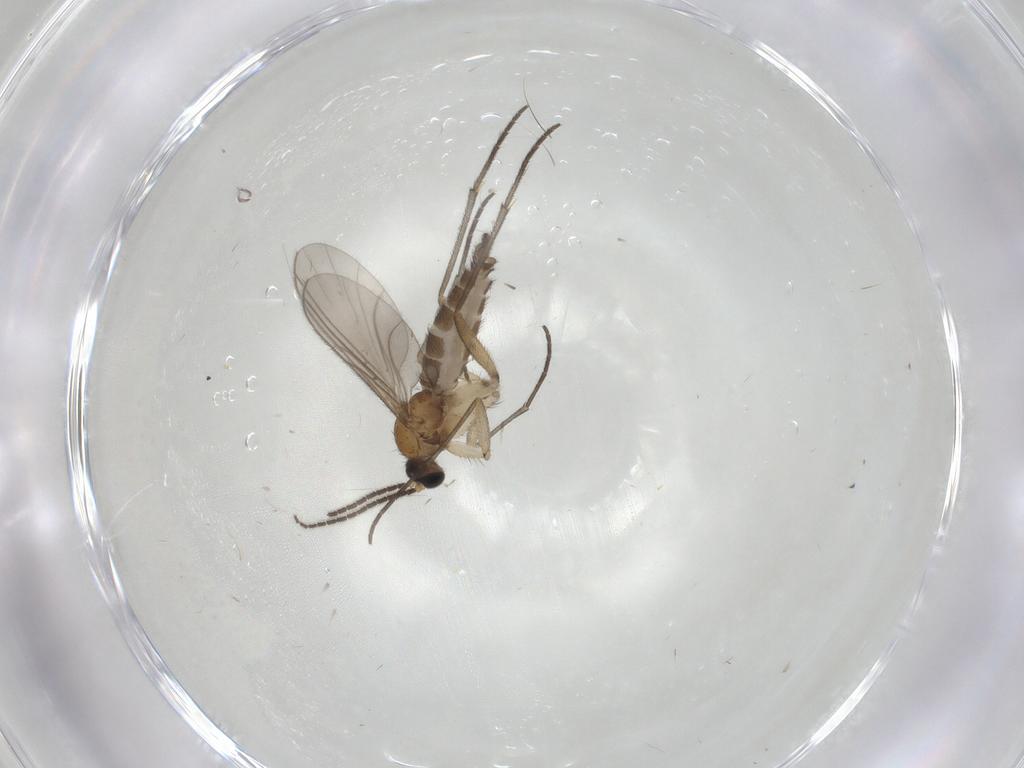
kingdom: Animalia
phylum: Arthropoda
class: Insecta
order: Diptera
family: Sciaridae
